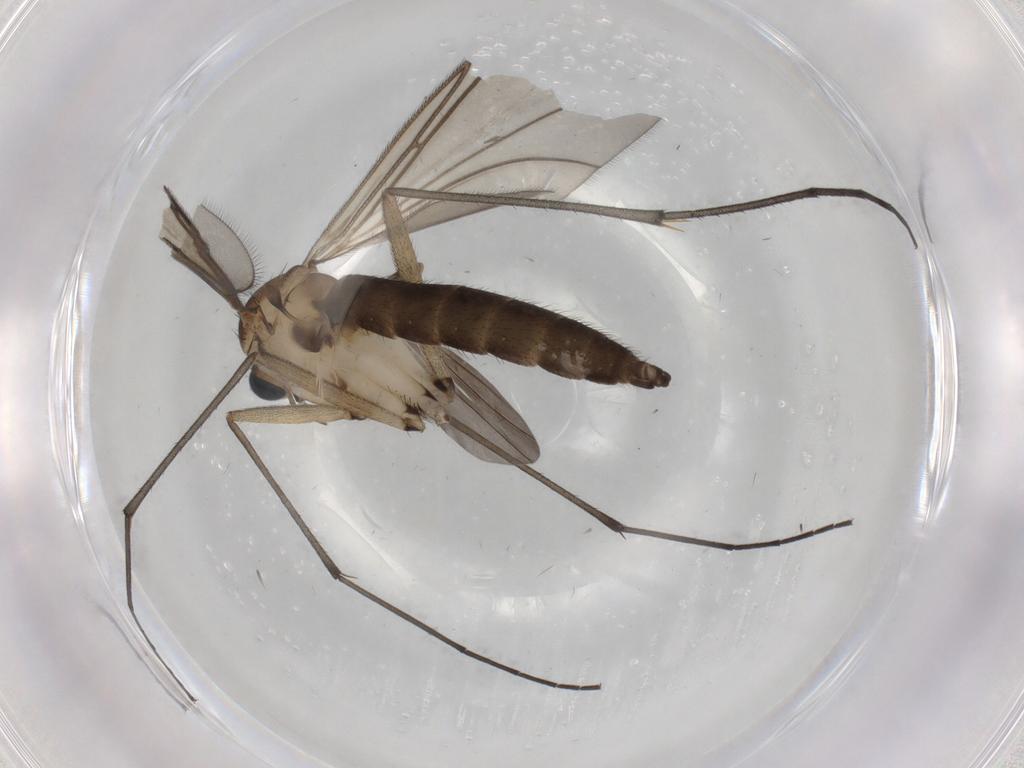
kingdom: Animalia
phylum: Arthropoda
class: Insecta
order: Diptera
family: Sciaridae
